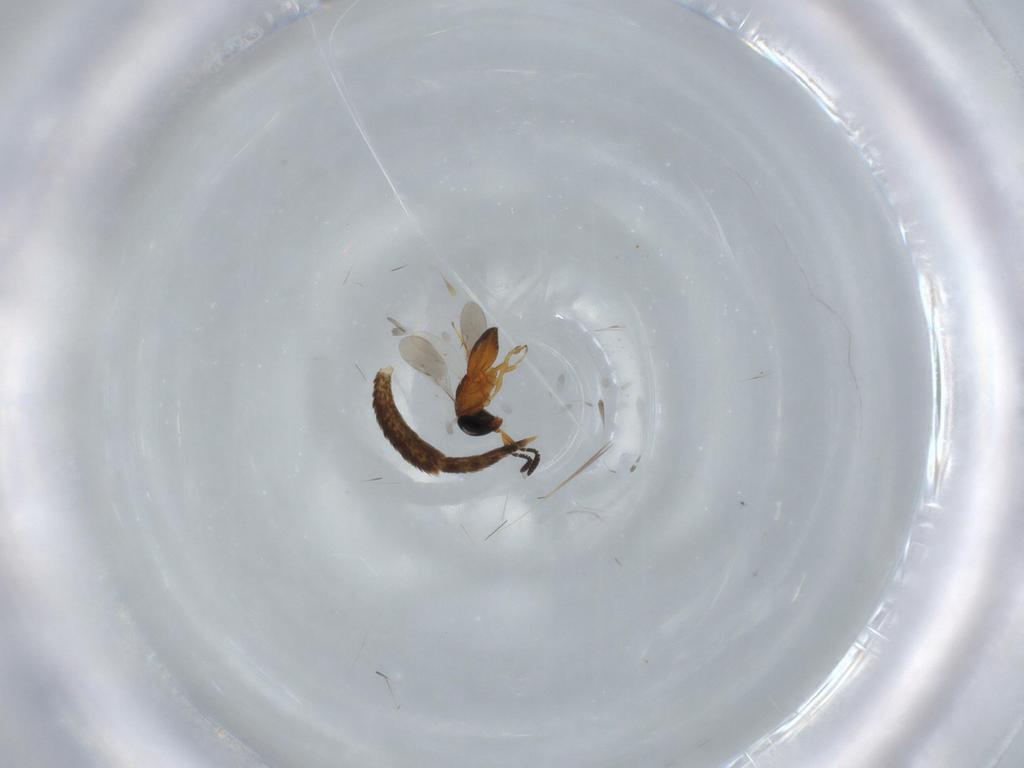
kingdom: Animalia
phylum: Arthropoda
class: Insecta
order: Hymenoptera
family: Scelionidae
